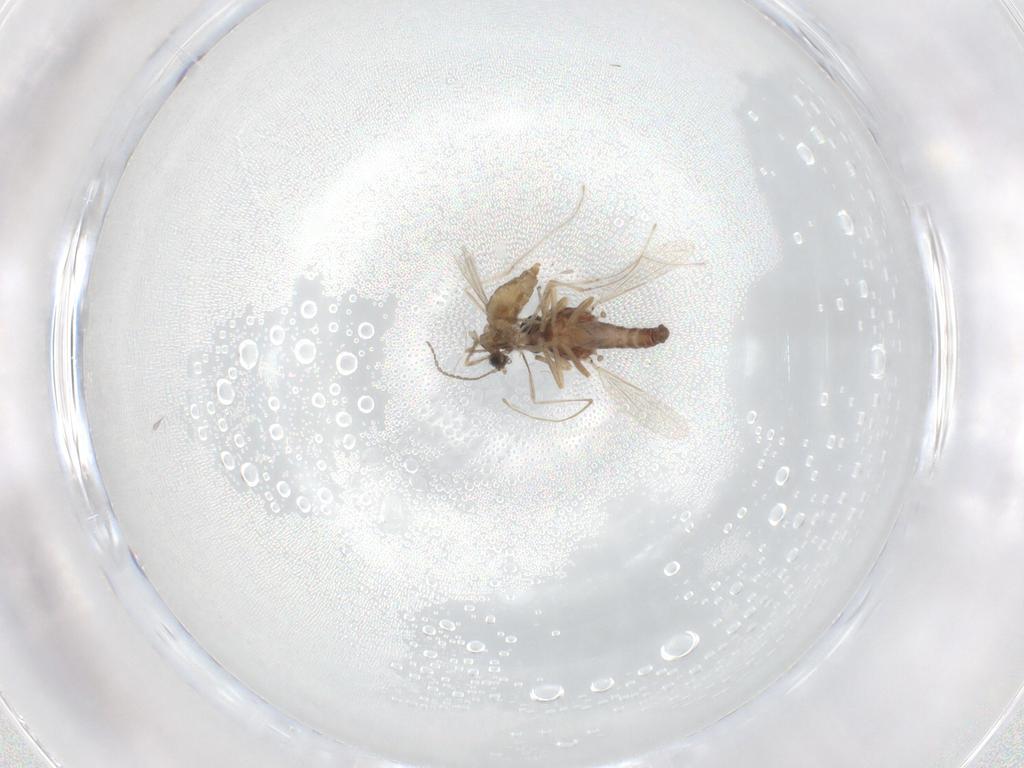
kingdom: Animalia
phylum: Arthropoda
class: Insecta
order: Diptera
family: Ceratopogonidae
